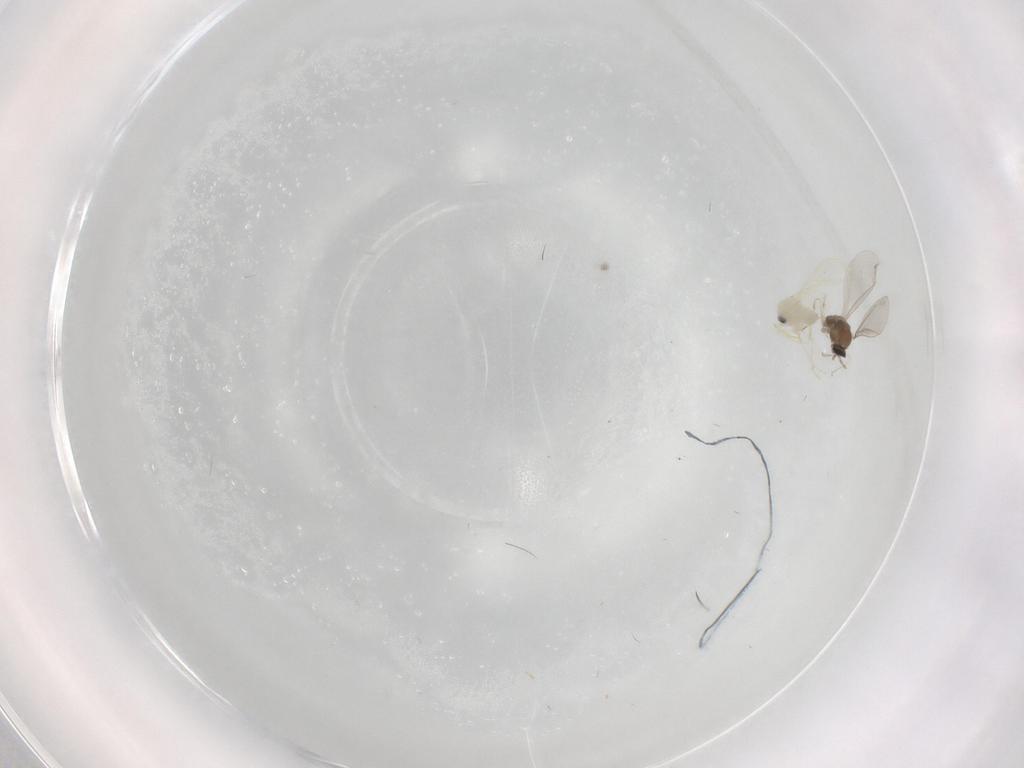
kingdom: Animalia
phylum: Arthropoda
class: Insecta
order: Hemiptera
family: Aleyrodidae
